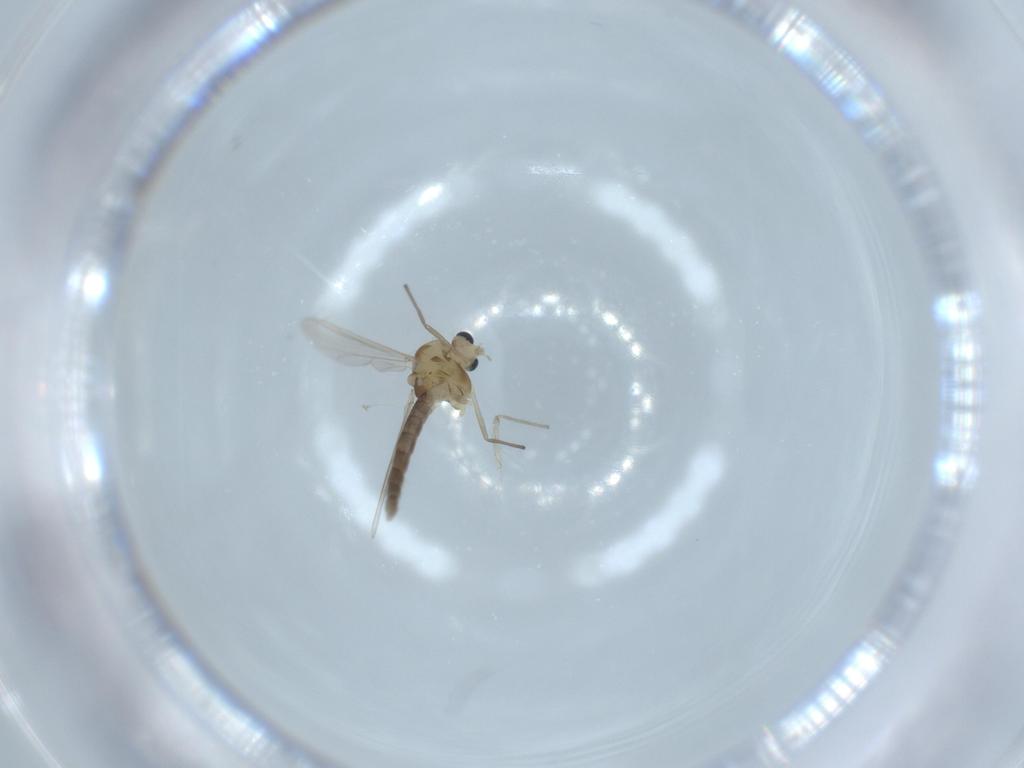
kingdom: Animalia
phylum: Arthropoda
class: Insecta
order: Diptera
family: Chironomidae
